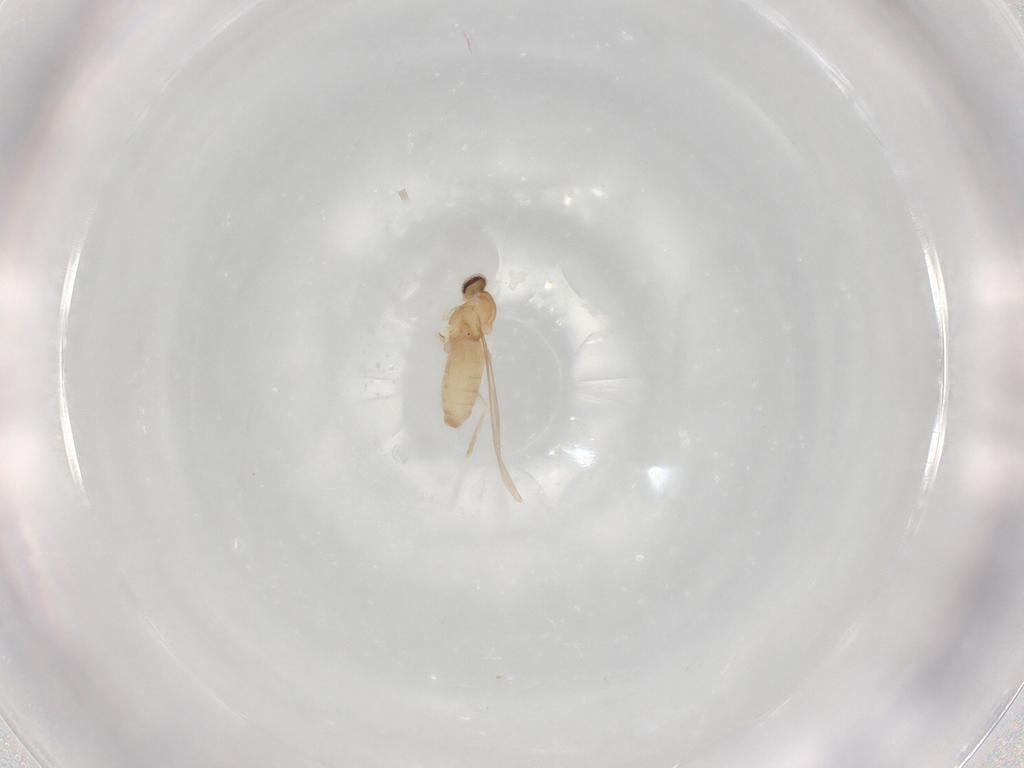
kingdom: Animalia
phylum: Arthropoda
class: Insecta
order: Diptera
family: Cecidomyiidae
